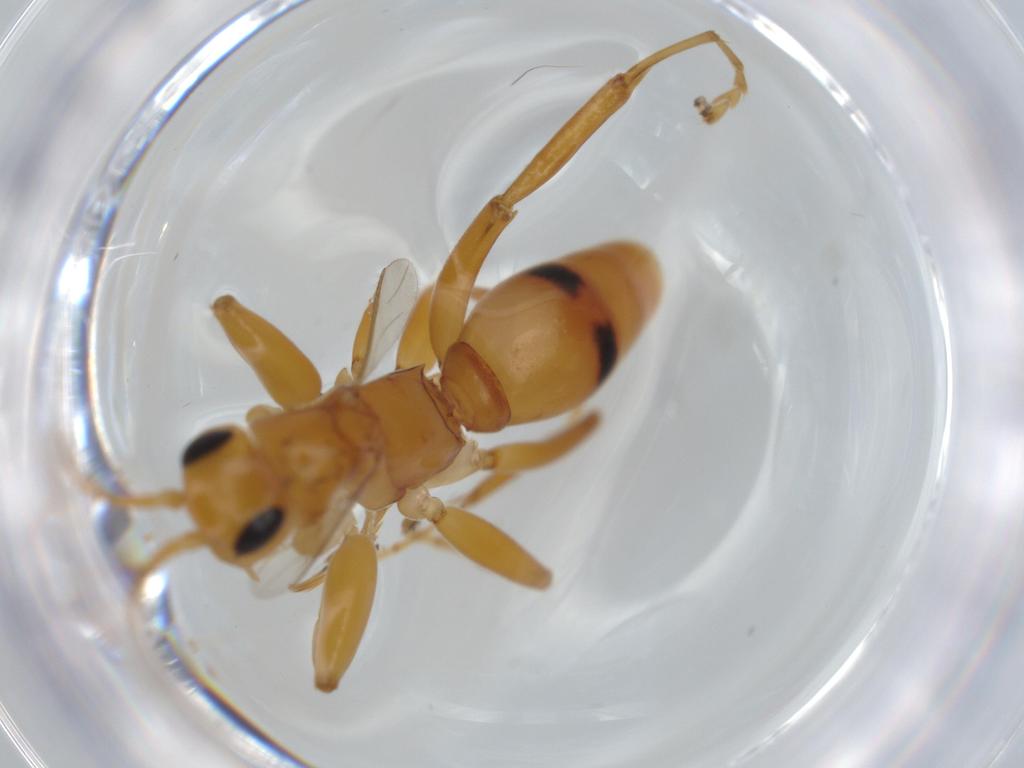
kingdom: Animalia
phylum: Arthropoda
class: Insecta
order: Hymenoptera
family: Rhopalosomatidae
